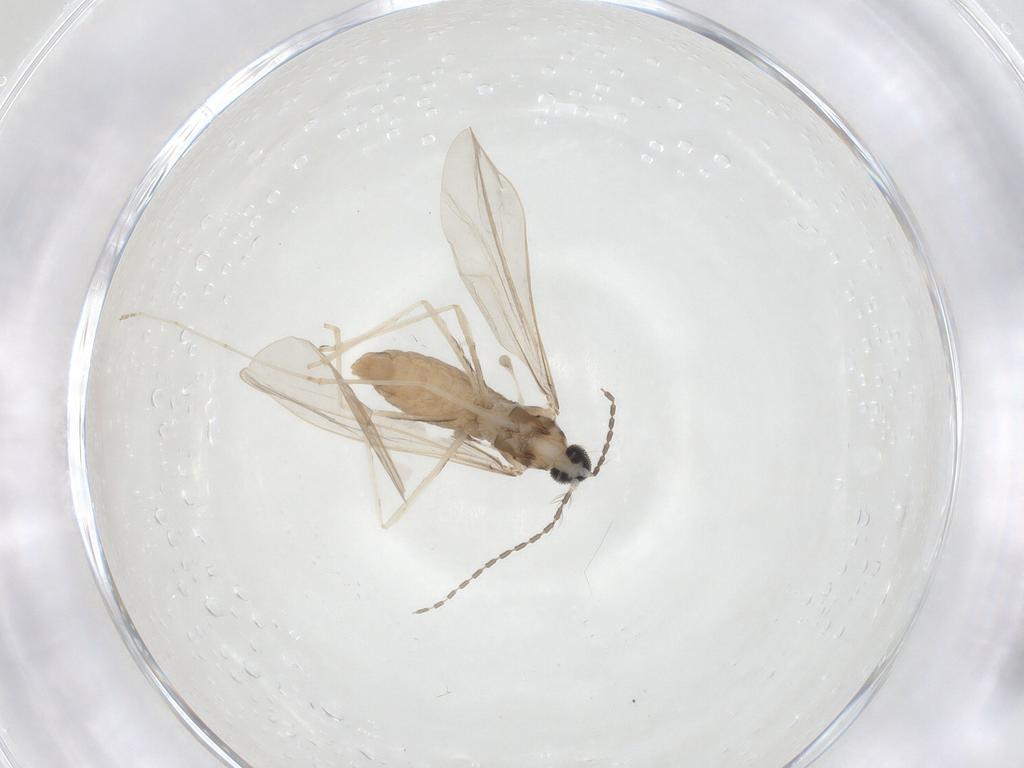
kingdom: Animalia
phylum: Arthropoda
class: Insecta
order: Diptera
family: Cecidomyiidae
